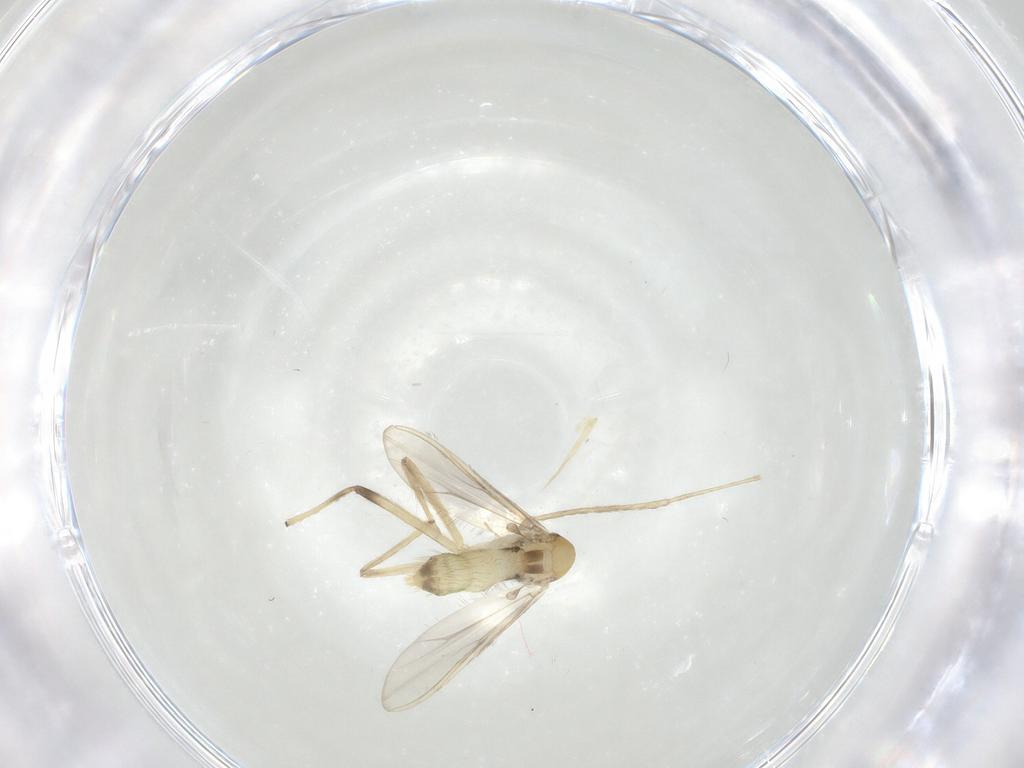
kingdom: Animalia
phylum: Arthropoda
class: Insecta
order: Diptera
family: Chironomidae
